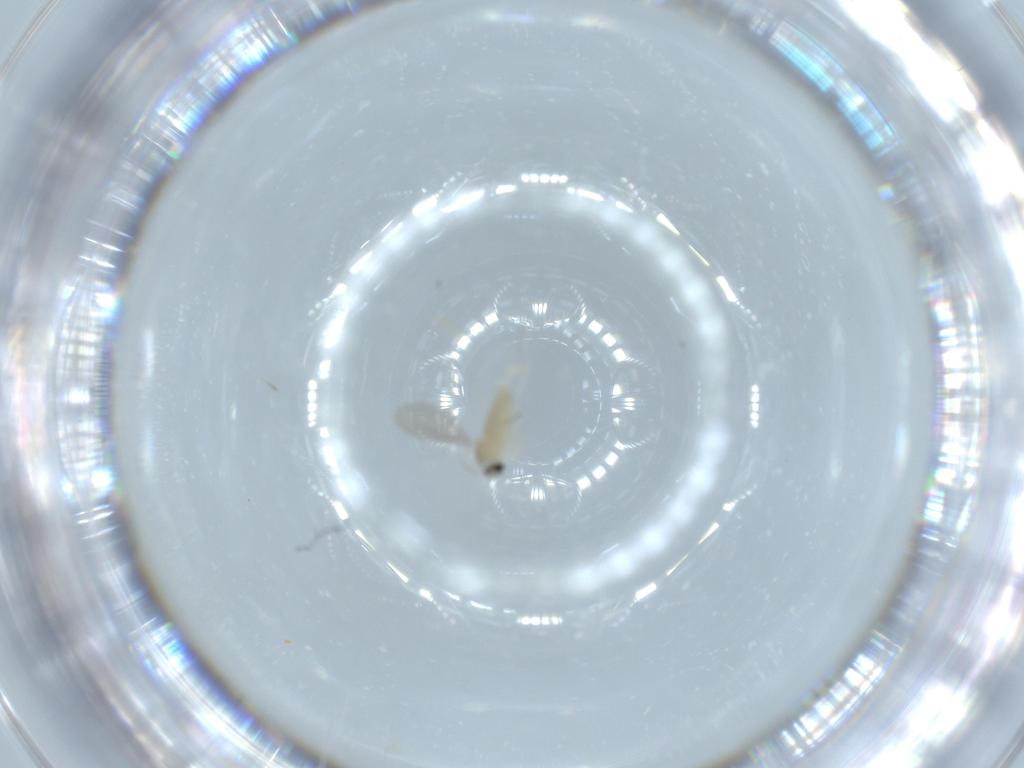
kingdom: Animalia
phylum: Arthropoda
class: Insecta
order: Diptera
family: Cecidomyiidae
